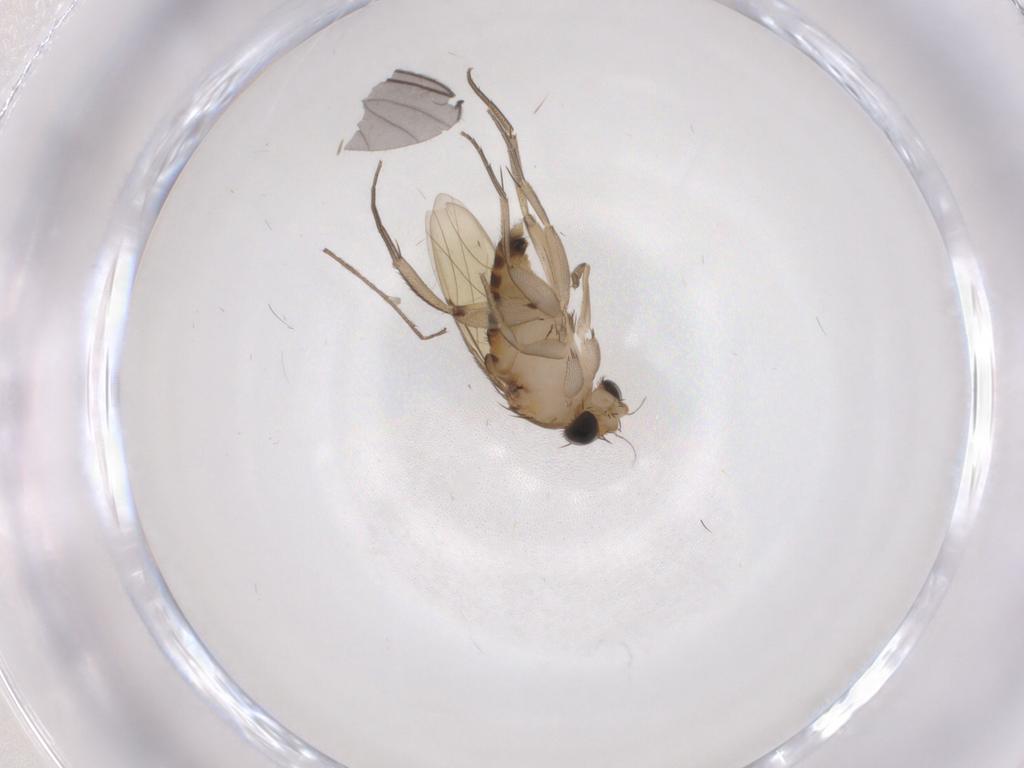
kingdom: Animalia
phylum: Arthropoda
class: Insecta
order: Diptera
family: Phoridae
